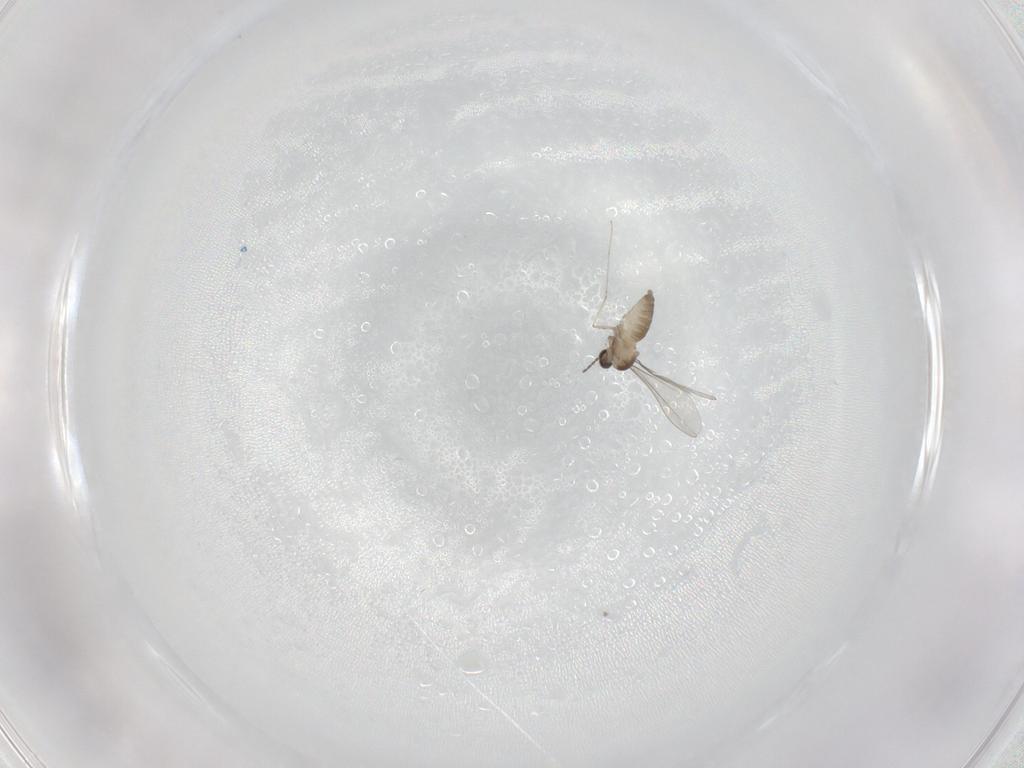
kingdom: Animalia
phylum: Arthropoda
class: Insecta
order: Diptera
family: Cecidomyiidae
